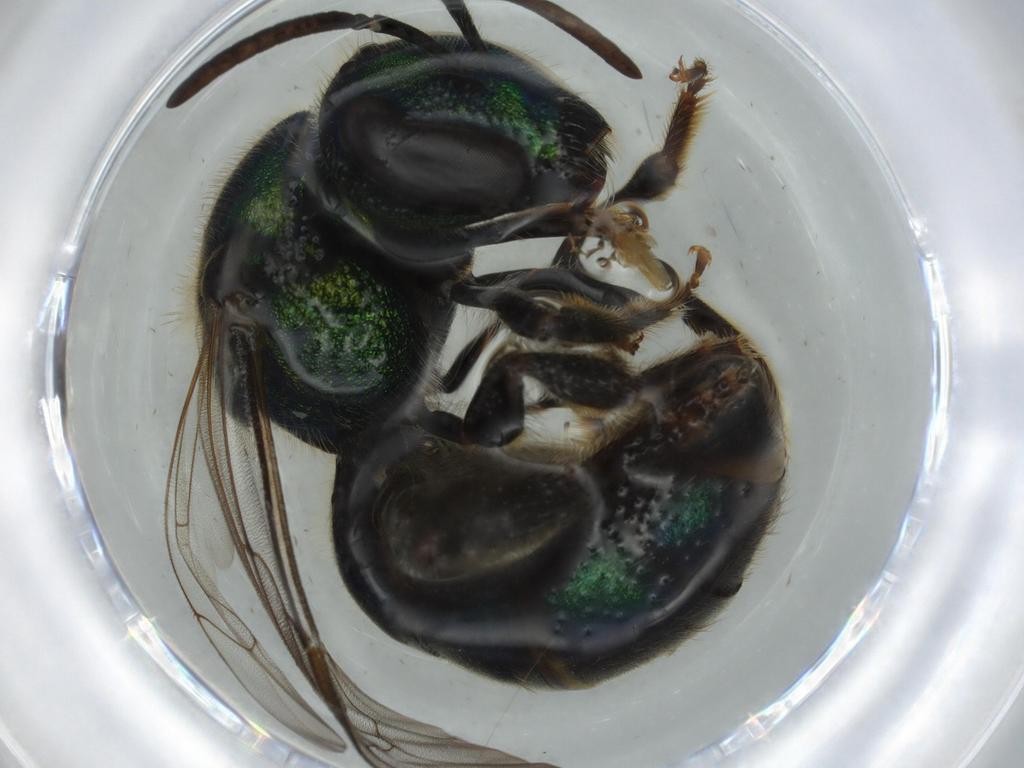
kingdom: Animalia
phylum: Arthropoda
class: Insecta
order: Hymenoptera
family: Halictidae
